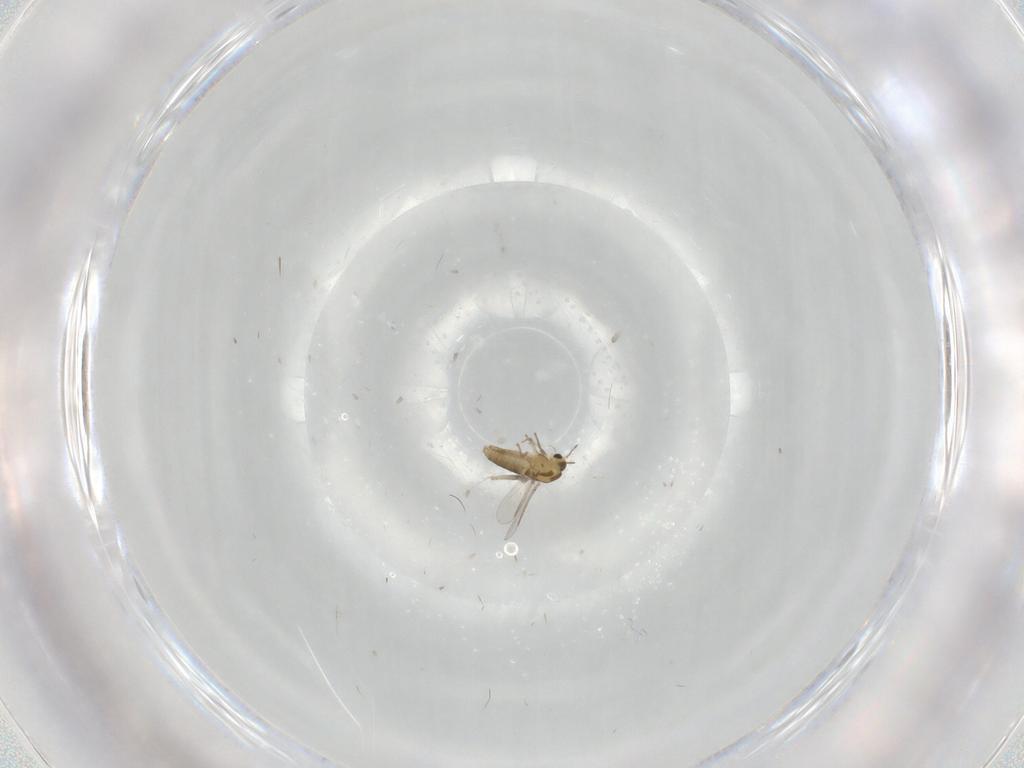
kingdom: Animalia
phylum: Arthropoda
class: Insecta
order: Diptera
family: Chironomidae
